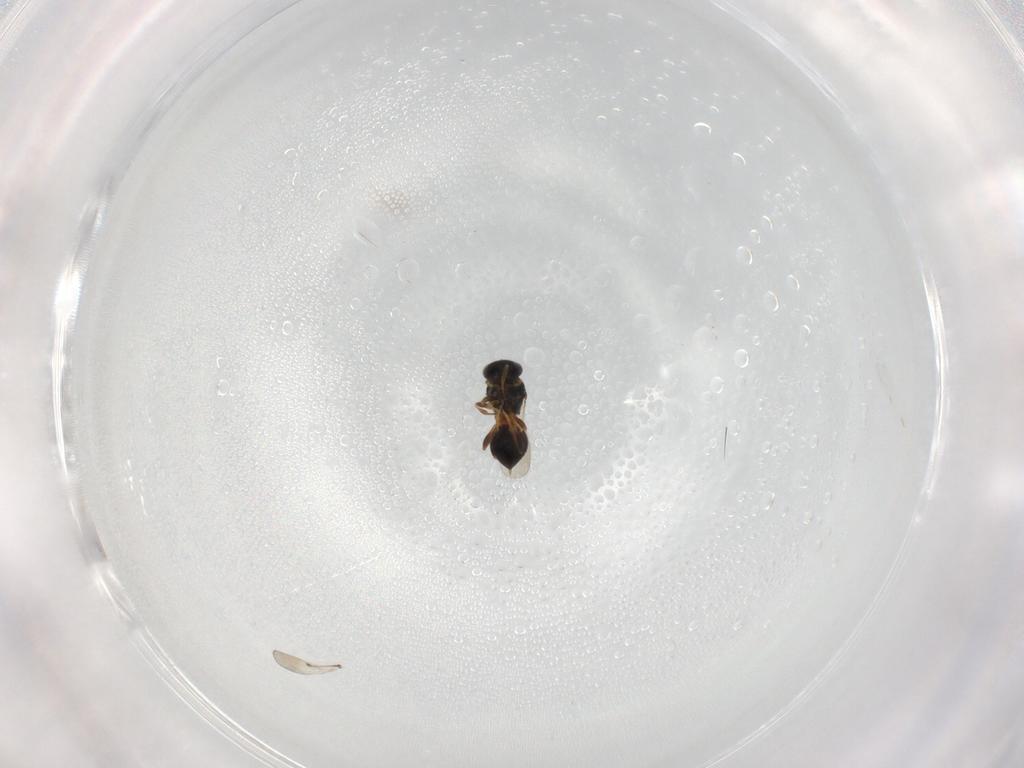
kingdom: Animalia
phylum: Arthropoda
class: Insecta
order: Hymenoptera
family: Platygastridae
